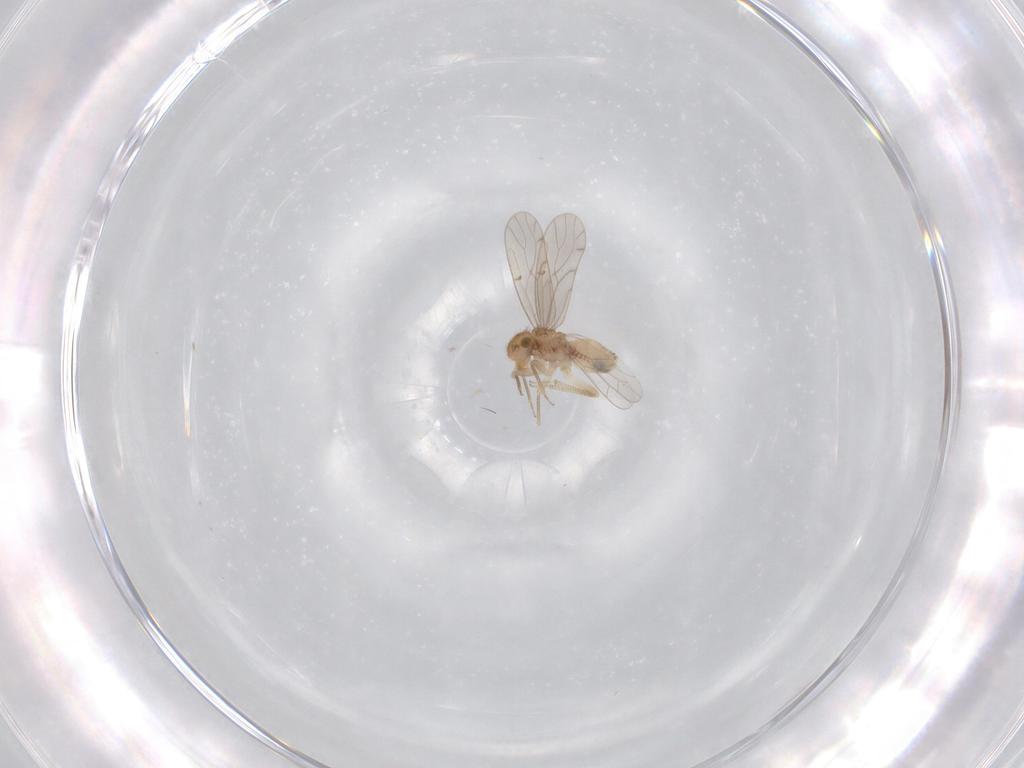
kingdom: Animalia
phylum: Arthropoda
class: Insecta
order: Psocodea
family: Ectopsocidae
